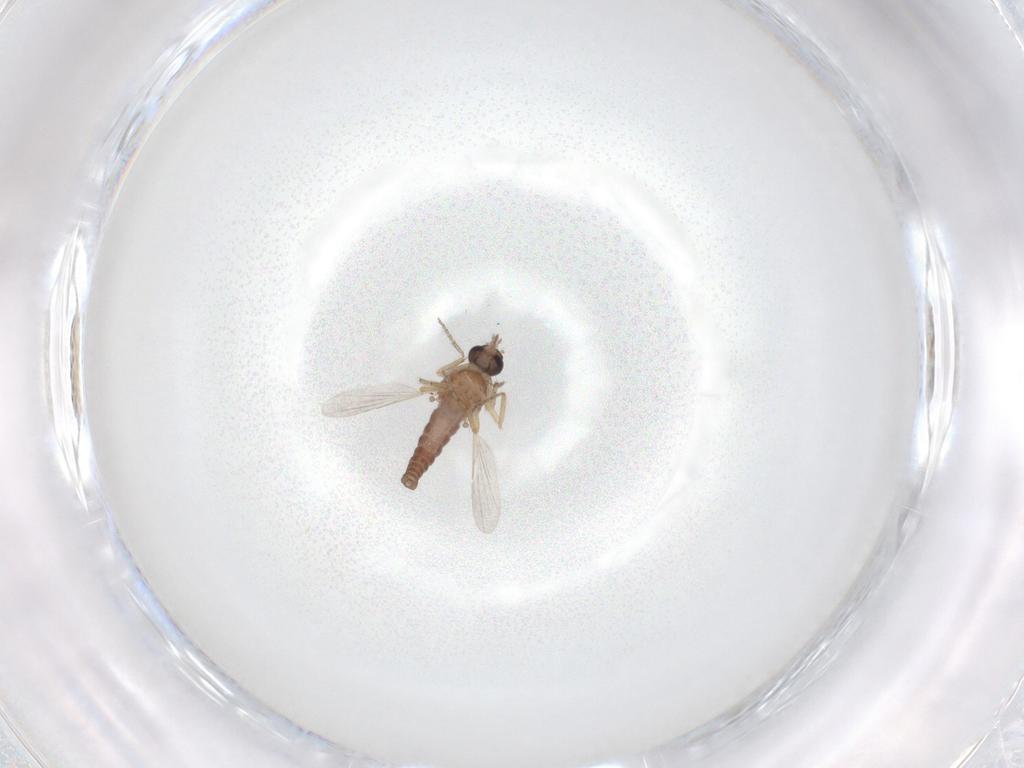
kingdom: Animalia
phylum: Arthropoda
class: Insecta
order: Diptera
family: Ceratopogonidae
